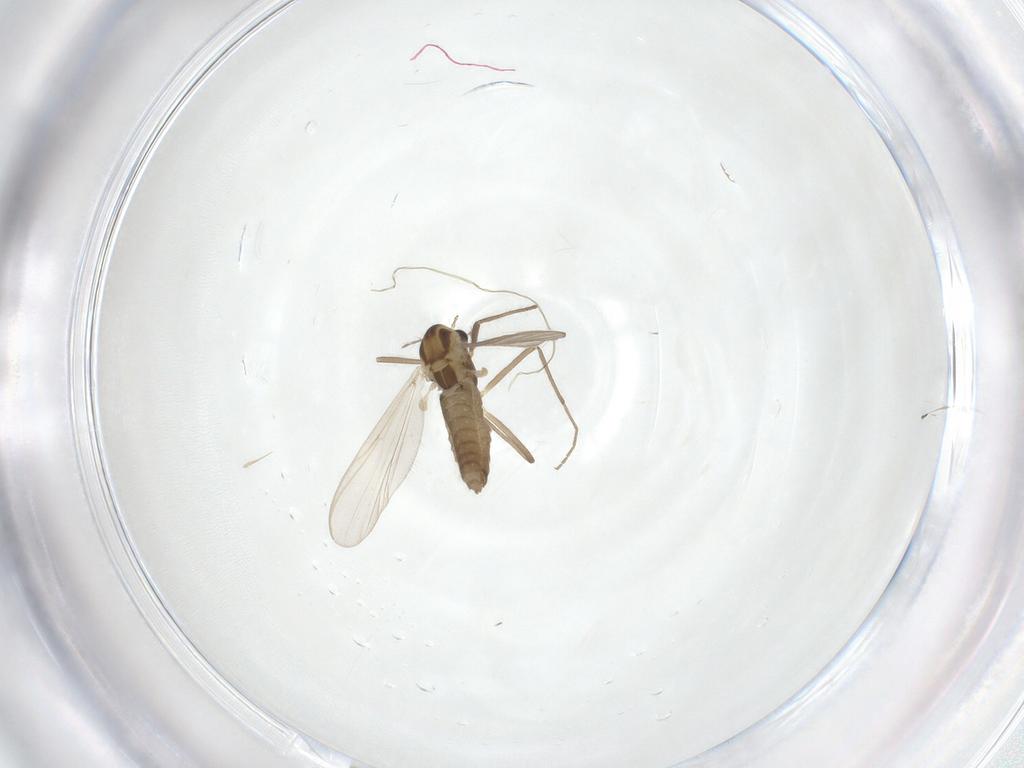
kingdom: Animalia
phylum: Arthropoda
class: Insecta
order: Diptera
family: Chironomidae
